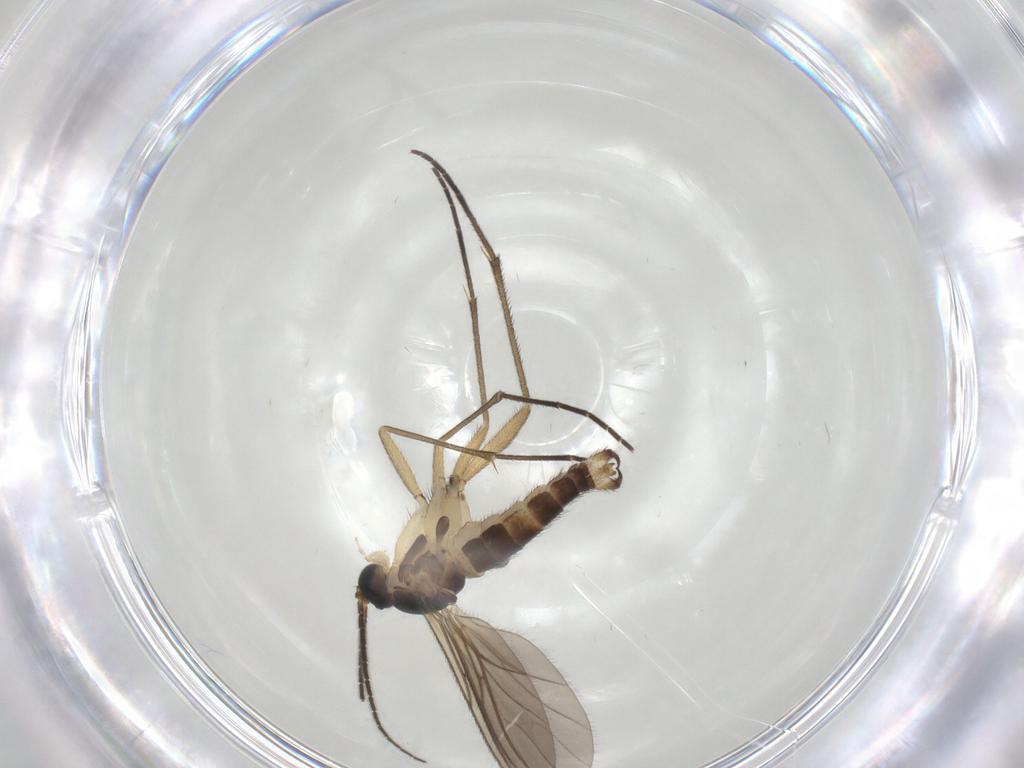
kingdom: Animalia
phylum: Arthropoda
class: Insecta
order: Diptera
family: Sciaridae
